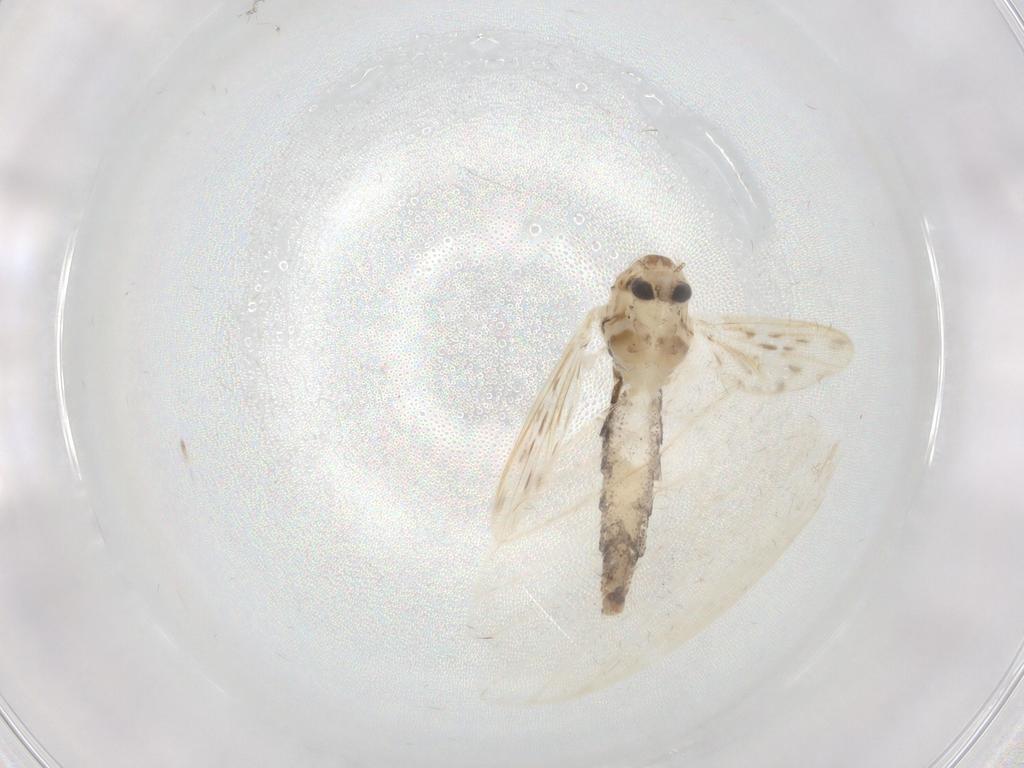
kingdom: Animalia
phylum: Arthropoda
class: Insecta
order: Diptera
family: Chaoboridae
